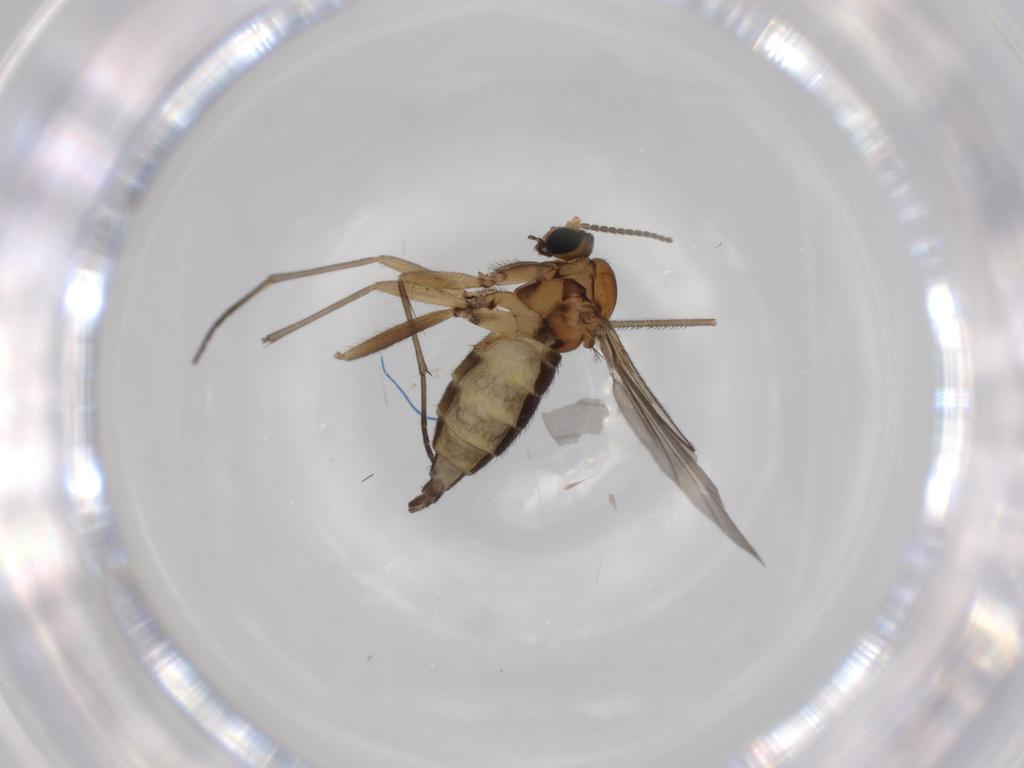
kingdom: Animalia
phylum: Arthropoda
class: Insecta
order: Diptera
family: Sciaridae
